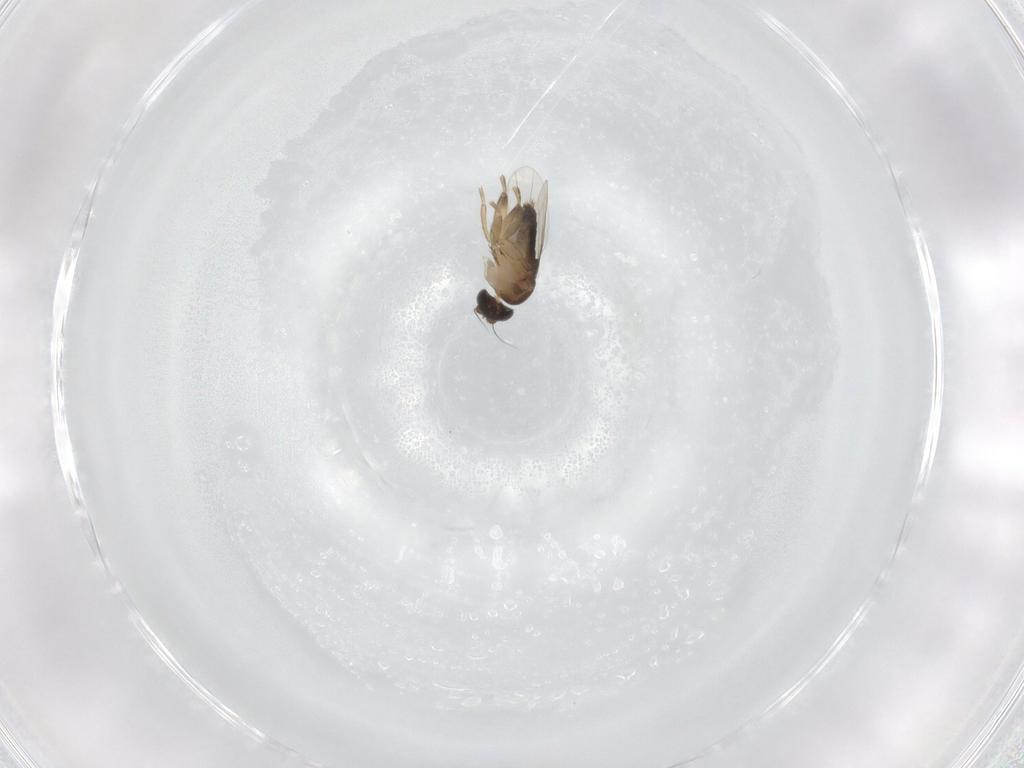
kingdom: Animalia
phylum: Arthropoda
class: Insecta
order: Diptera
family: Phoridae
